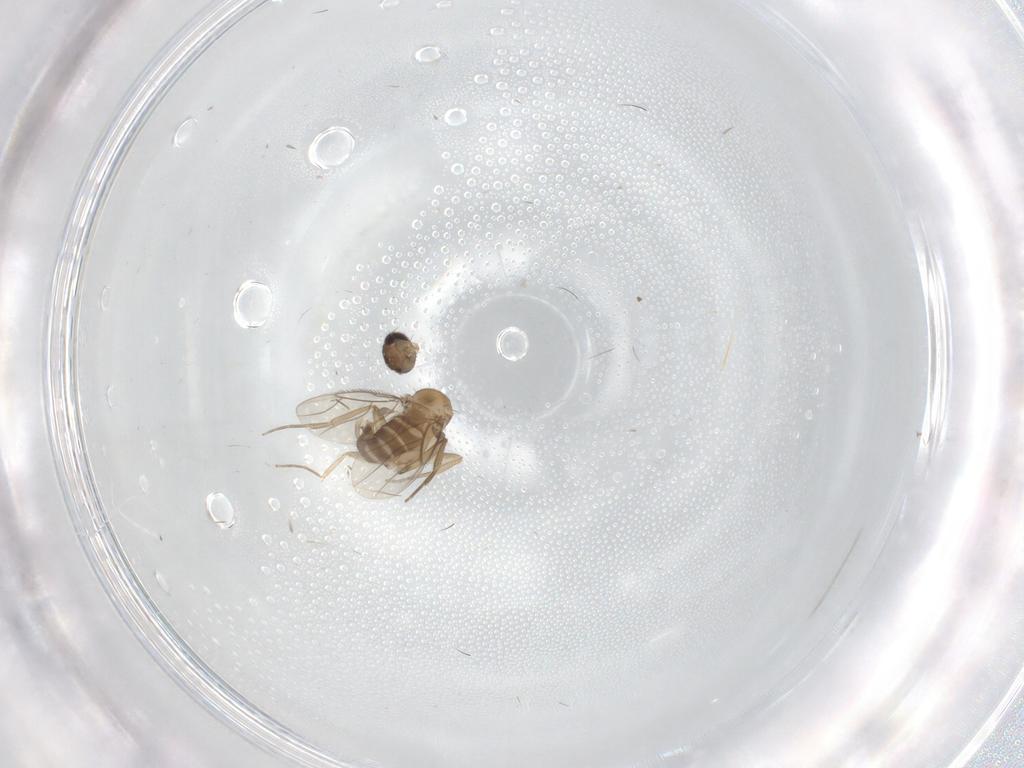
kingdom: Animalia
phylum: Arthropoda
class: Insecta
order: Diptera
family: Phoridae
